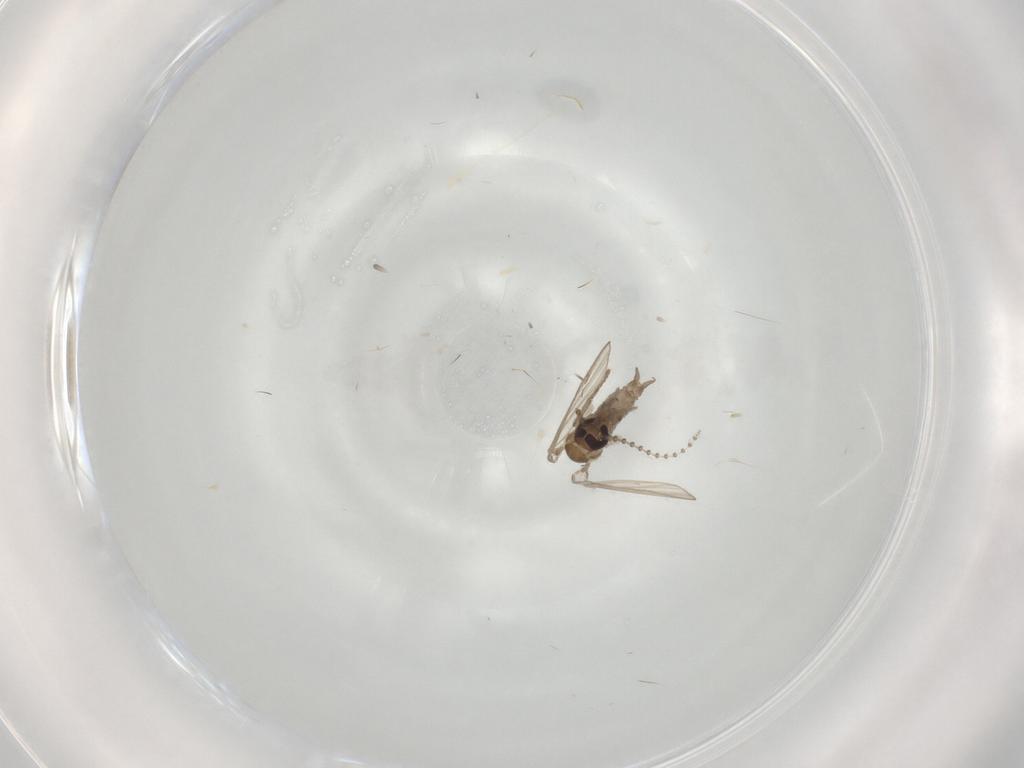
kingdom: Animalia
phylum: Arthropoda
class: Insecta
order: Diptera
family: Psychodidae
